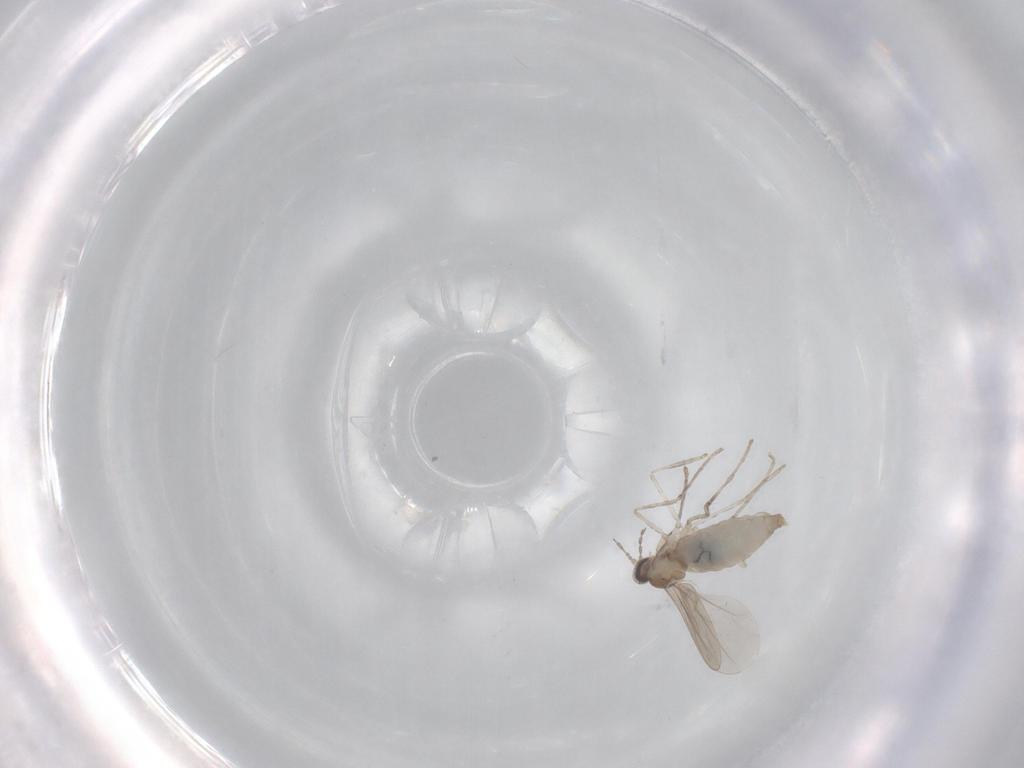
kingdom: Animalia
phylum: Arthropoda
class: Insecta
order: Diptera
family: Cecidomyiidae
